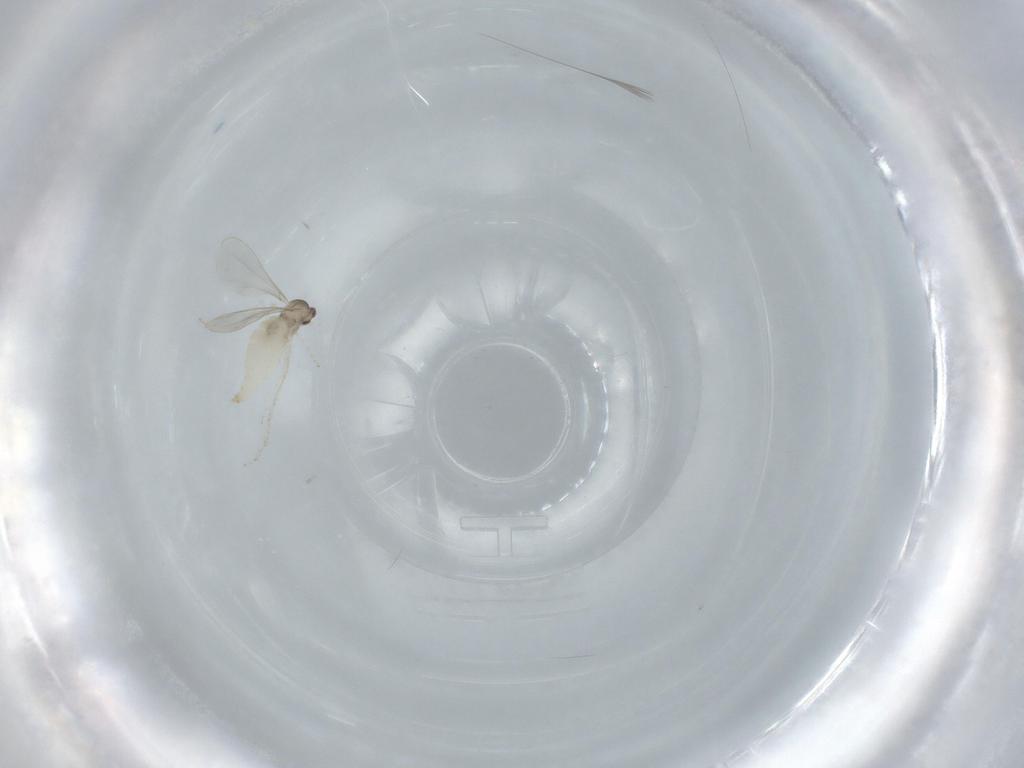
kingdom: Animalia
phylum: Arthropoda
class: Insecta
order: Diptera
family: Cecidomyiidae
